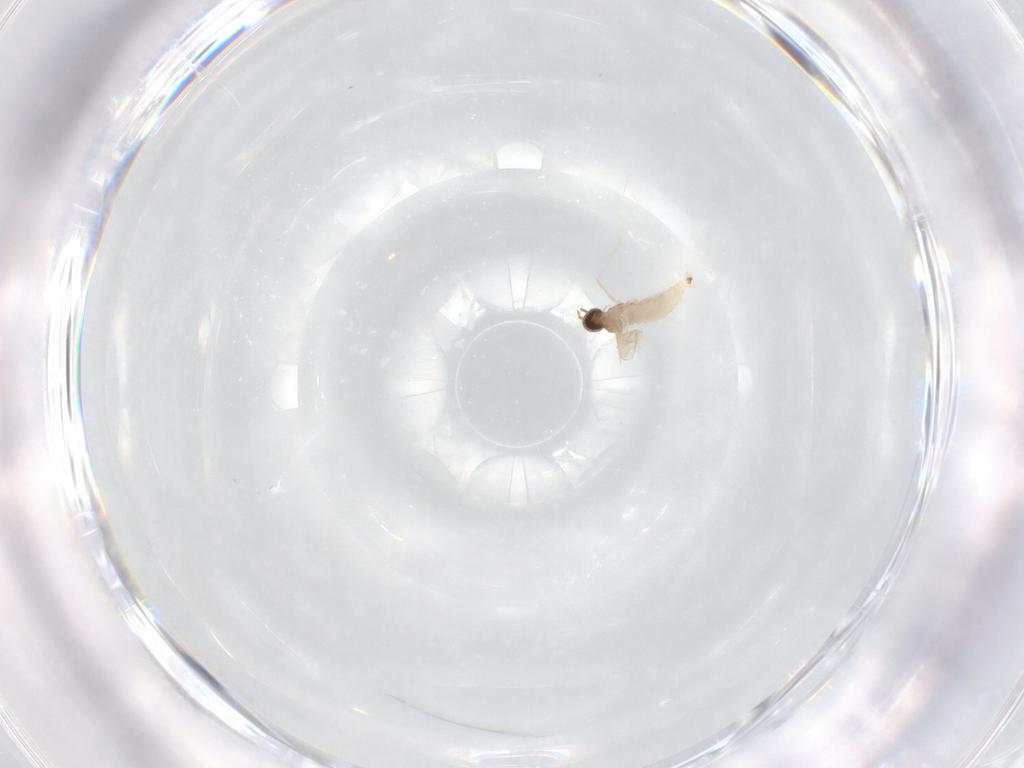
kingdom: Animalia
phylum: Arthropoda
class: Insecta
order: Diptera
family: Cecidomyiidae
